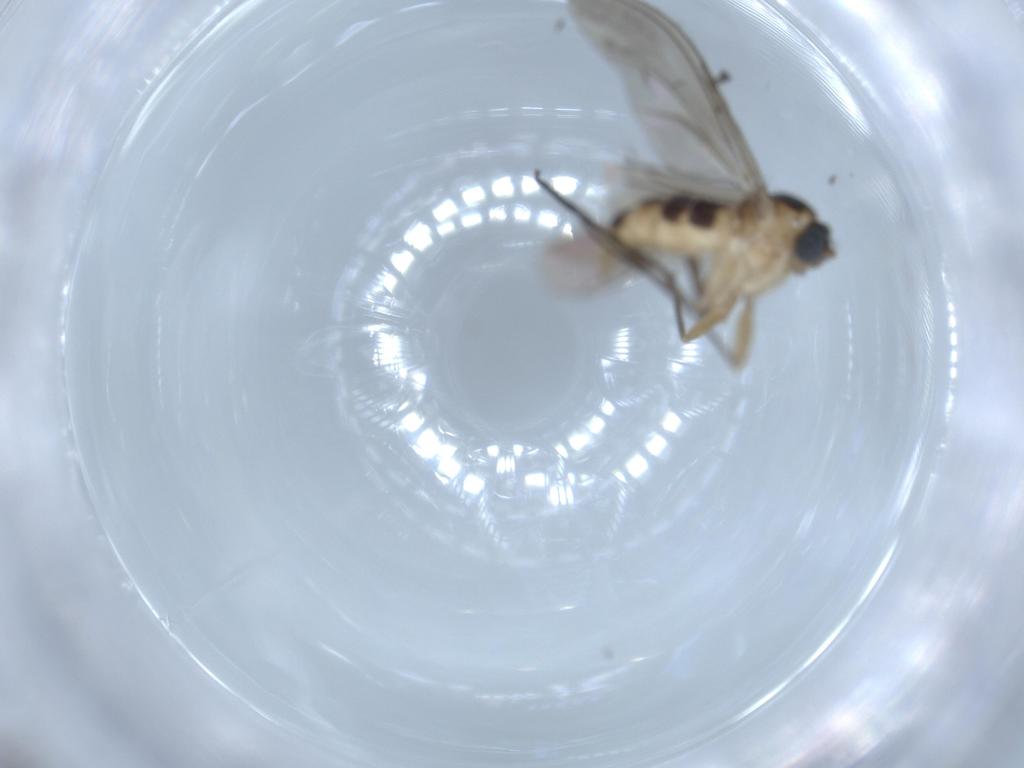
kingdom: Animalia
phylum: Arthropoda
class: Insecta
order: Diptera
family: Sciaridae
